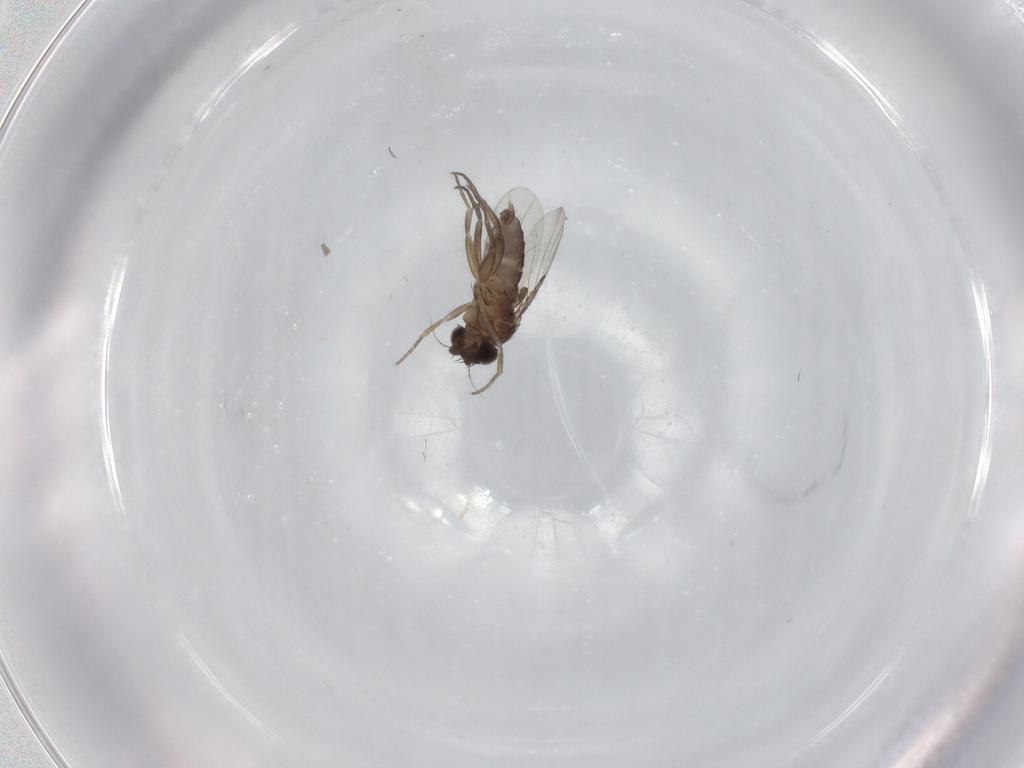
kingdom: Animalia
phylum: Arthropoda
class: Insecta
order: Diptera
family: Phoridae
